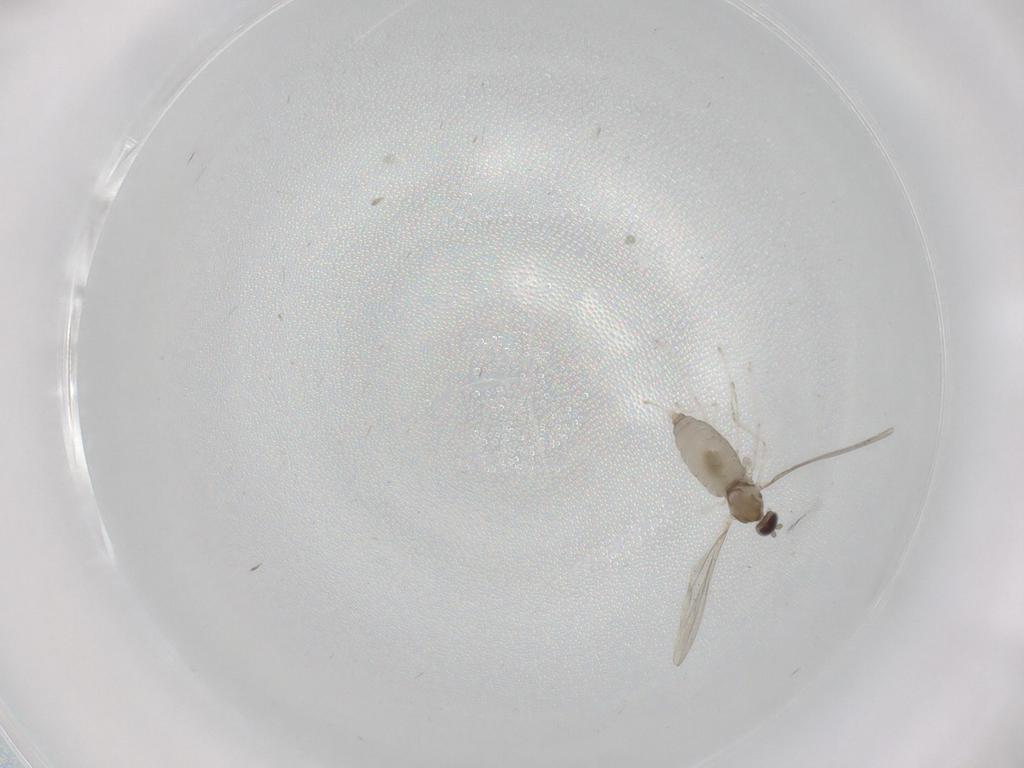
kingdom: Animalia
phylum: Arthropoda
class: Insecta
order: Diptera
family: Cecidomyiidae
